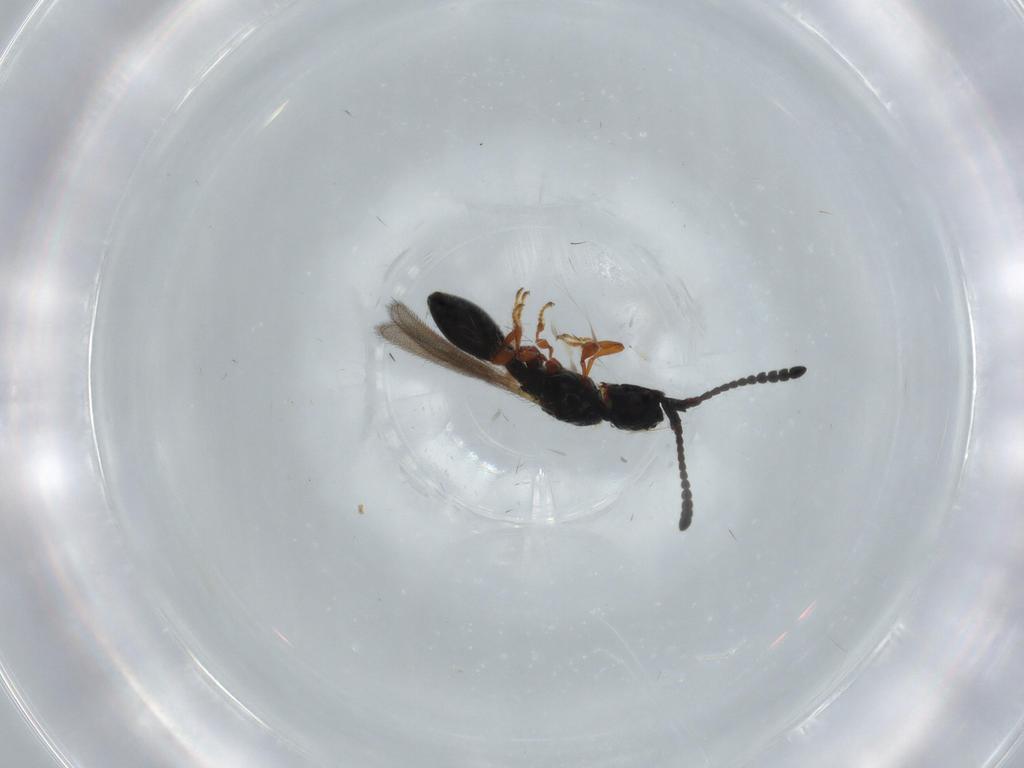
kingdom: Animalia
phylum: Arthropoda
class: Insecta
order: Hymenoptera
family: Diapriidae
